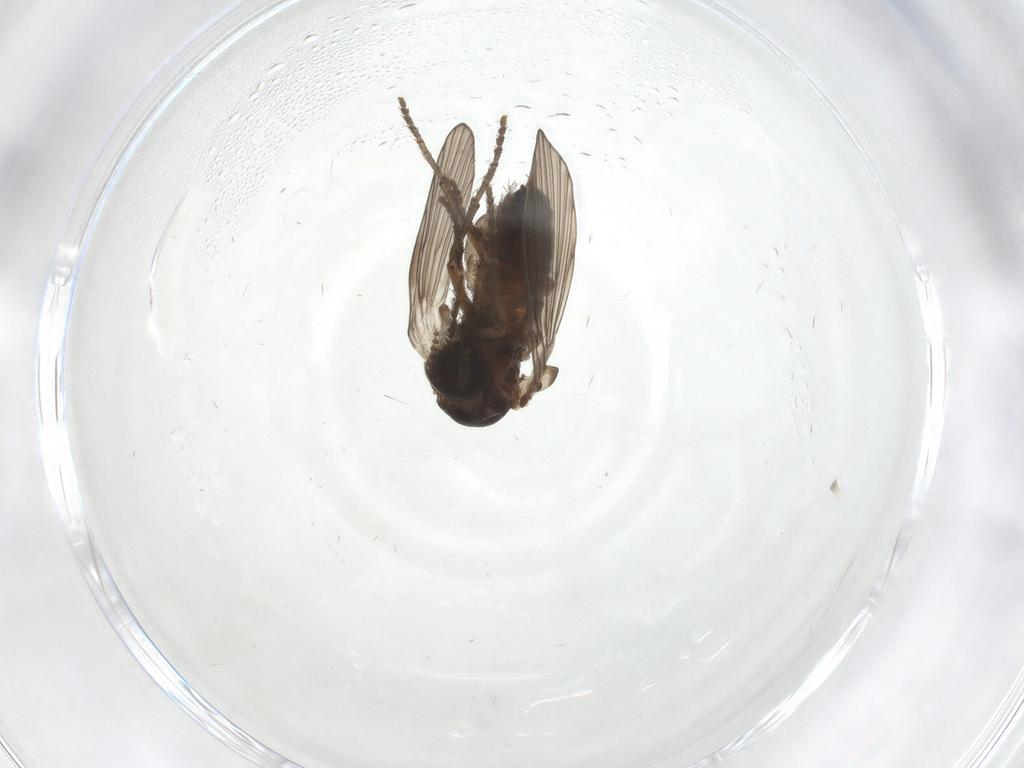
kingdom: Animalia
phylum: Arthropoda
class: Insecta
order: Diptera
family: Psychodidae
